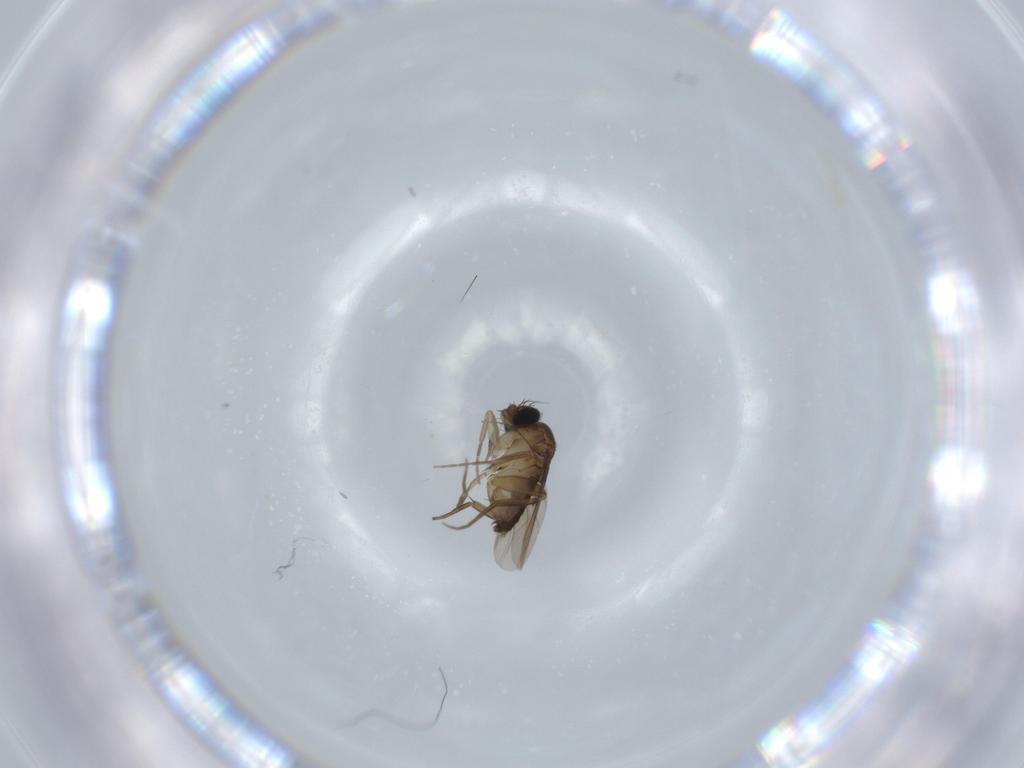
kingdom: Animalia
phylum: Arthropoda
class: Insecta
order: Diptera
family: Phoridae
